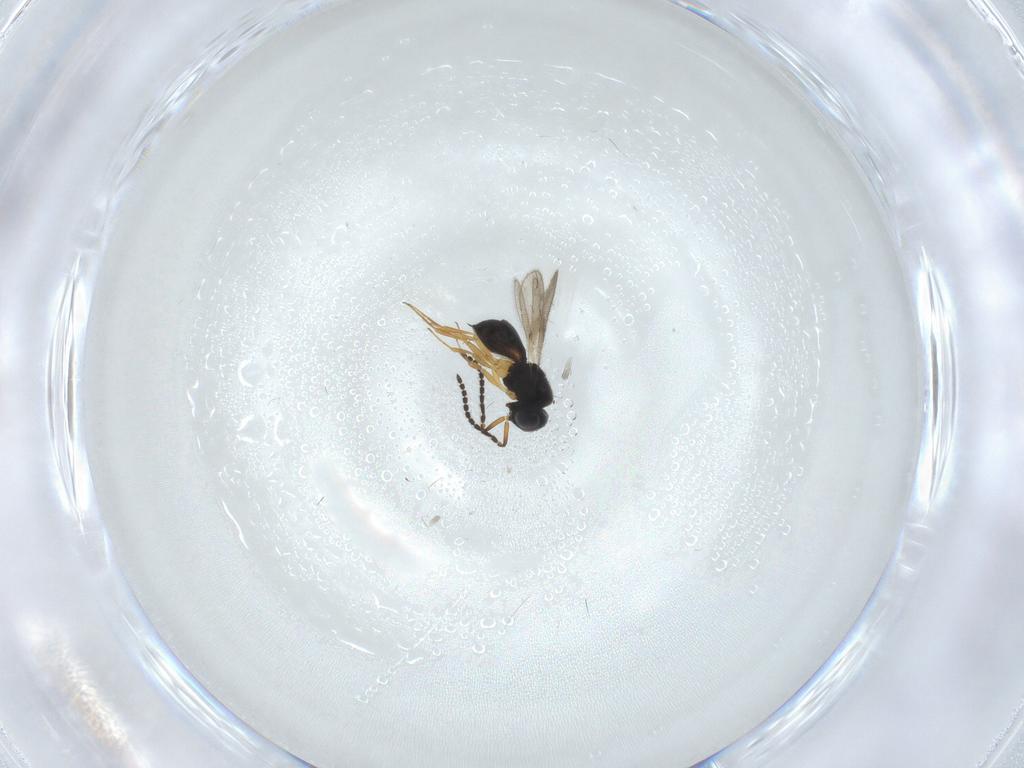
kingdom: Animalia
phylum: Arthropoda
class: Insecta
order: Hymenoptera
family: Scelionidae
